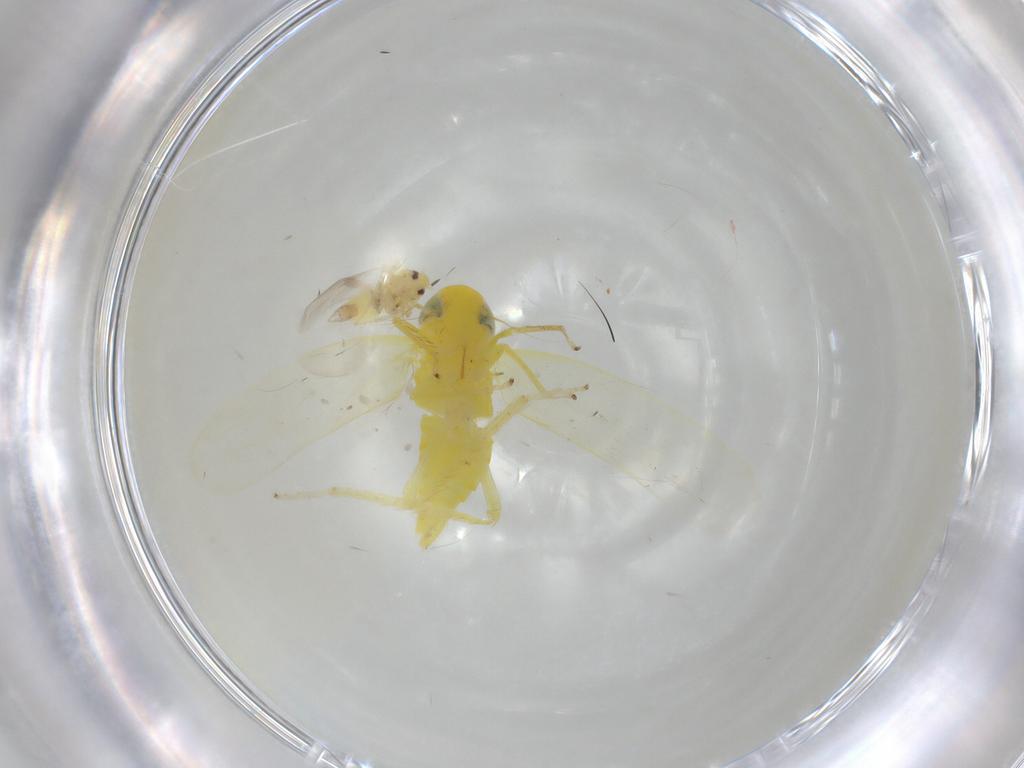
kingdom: Animalia
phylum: Arthropoda
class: Insecta
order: Hemiptera
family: Cicadellidae
